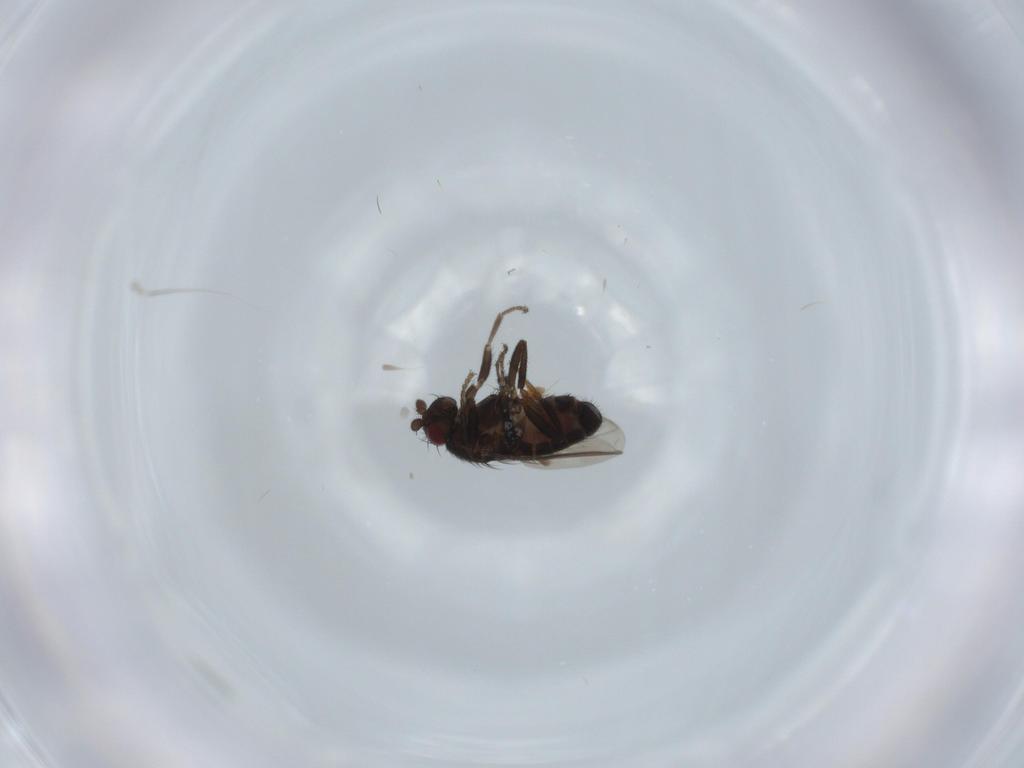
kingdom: Animalia
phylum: Arthropoda
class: Insecta
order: Diptera
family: Sphaeroceridae
